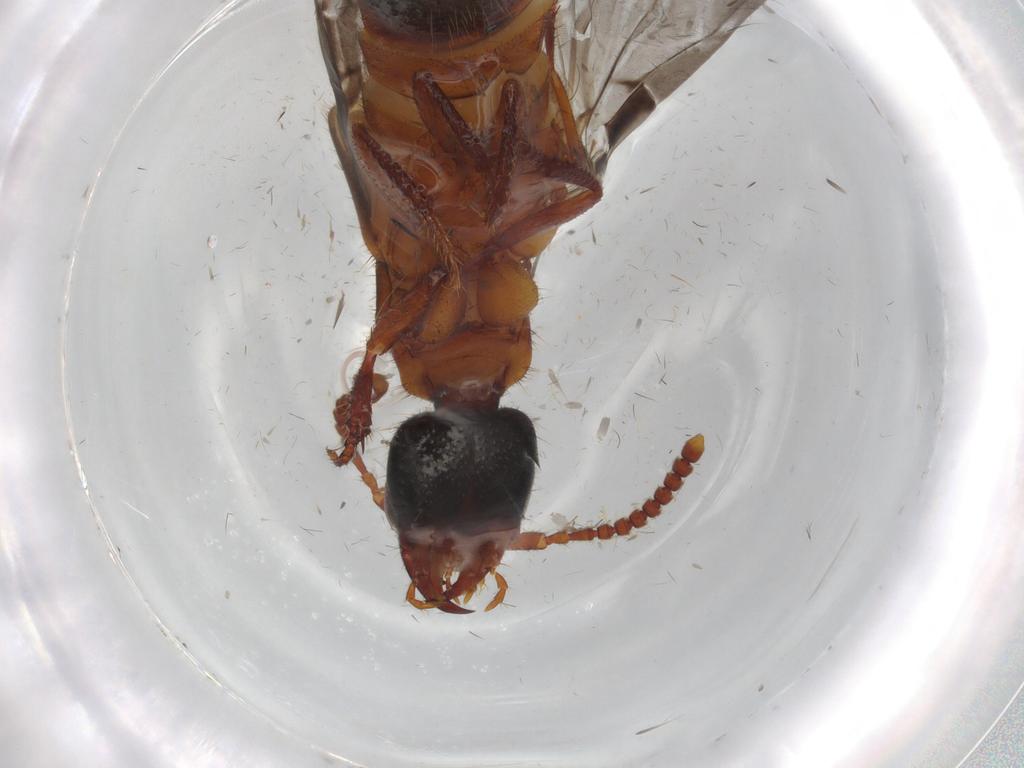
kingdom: Animalia
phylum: Arthropoda
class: Insecta
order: Coleoptera
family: Staphylinidae
